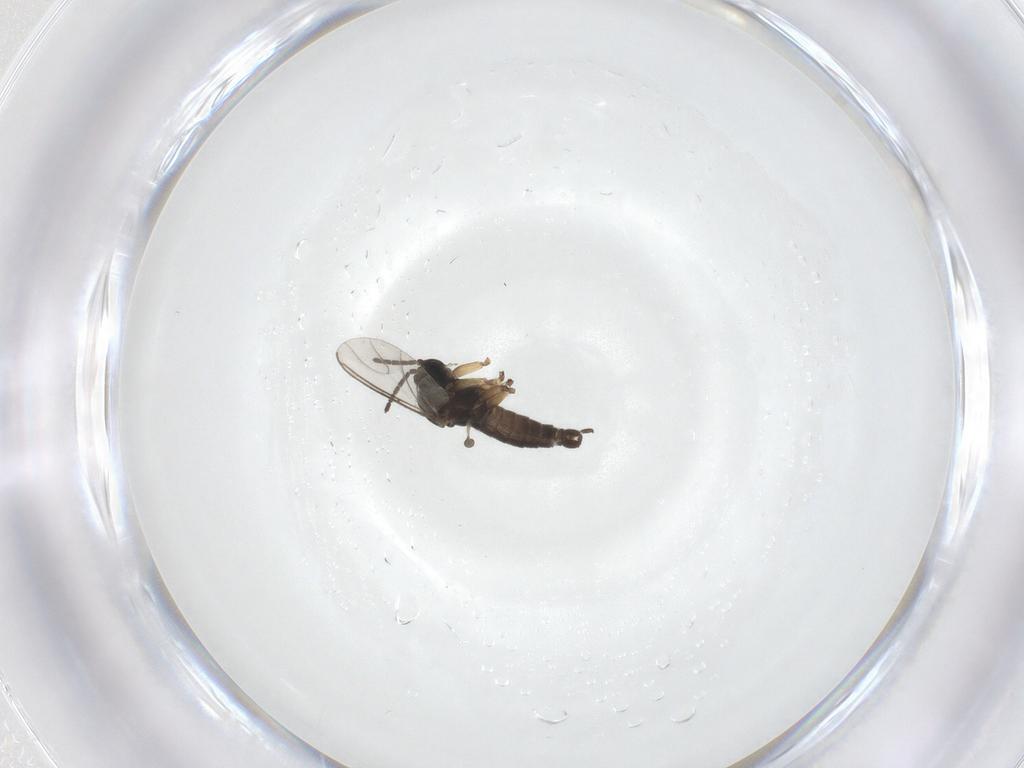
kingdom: Animalia
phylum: Arthropoda
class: Insecta
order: Diptera
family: Sciaridae
